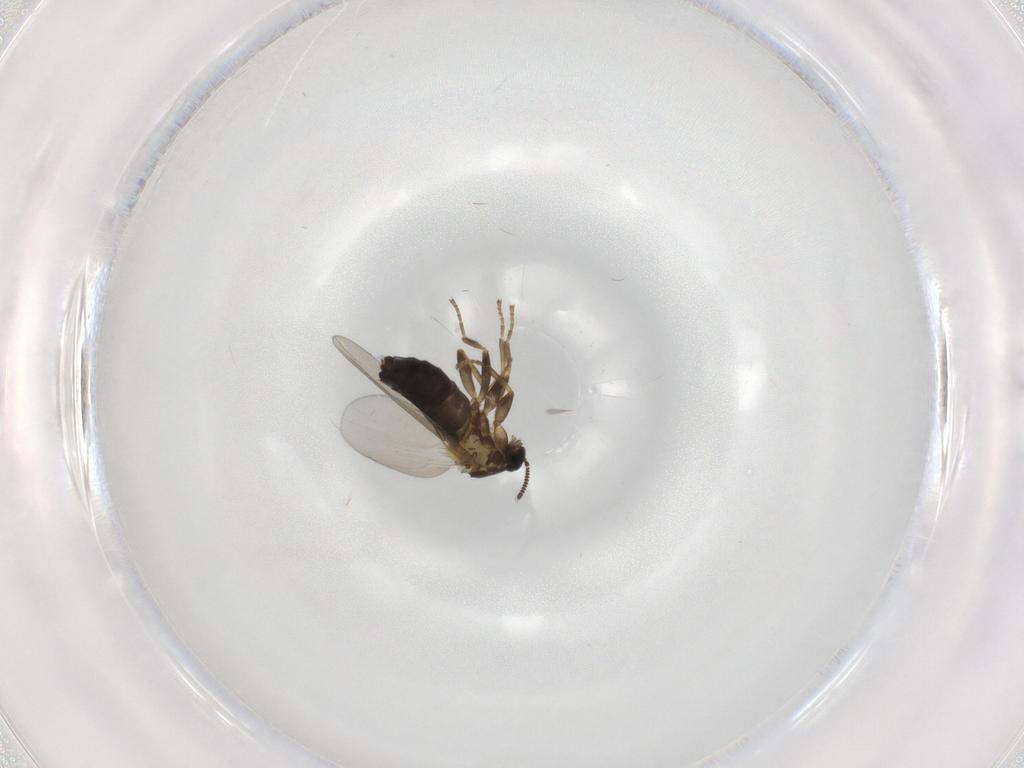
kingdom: Animalia
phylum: Arthropoda
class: Insecta
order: Diptera
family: Scatopsidae
